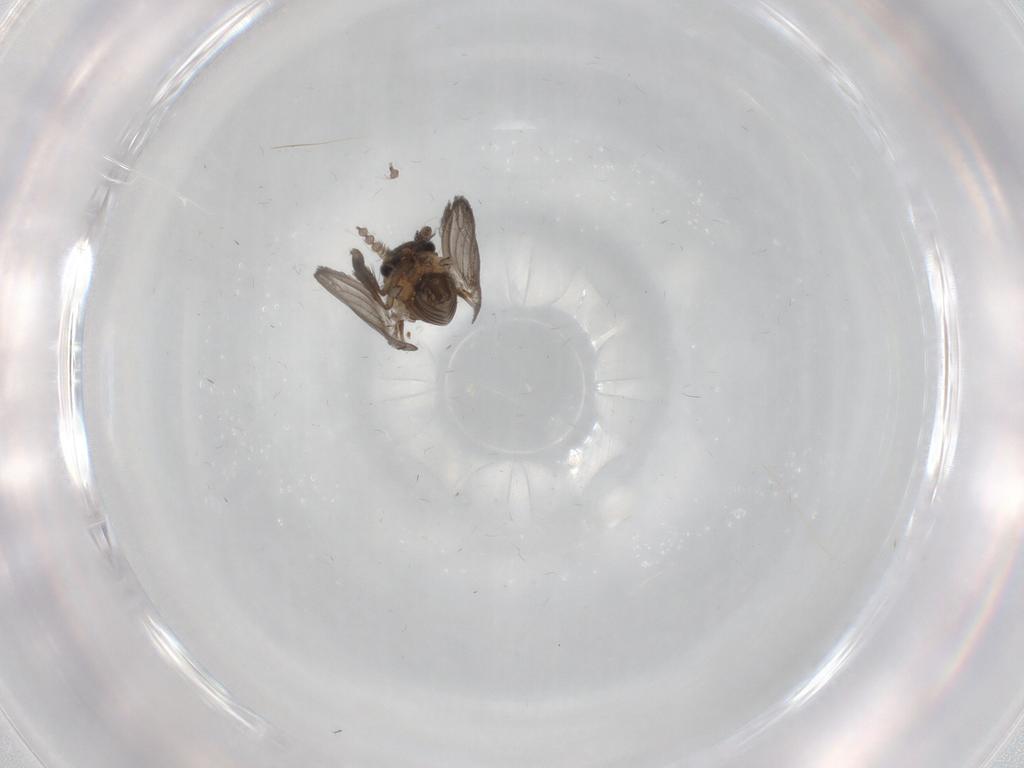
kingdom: Animalia
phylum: Arthropoda
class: Insecta
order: Diptera
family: Psychodidae
